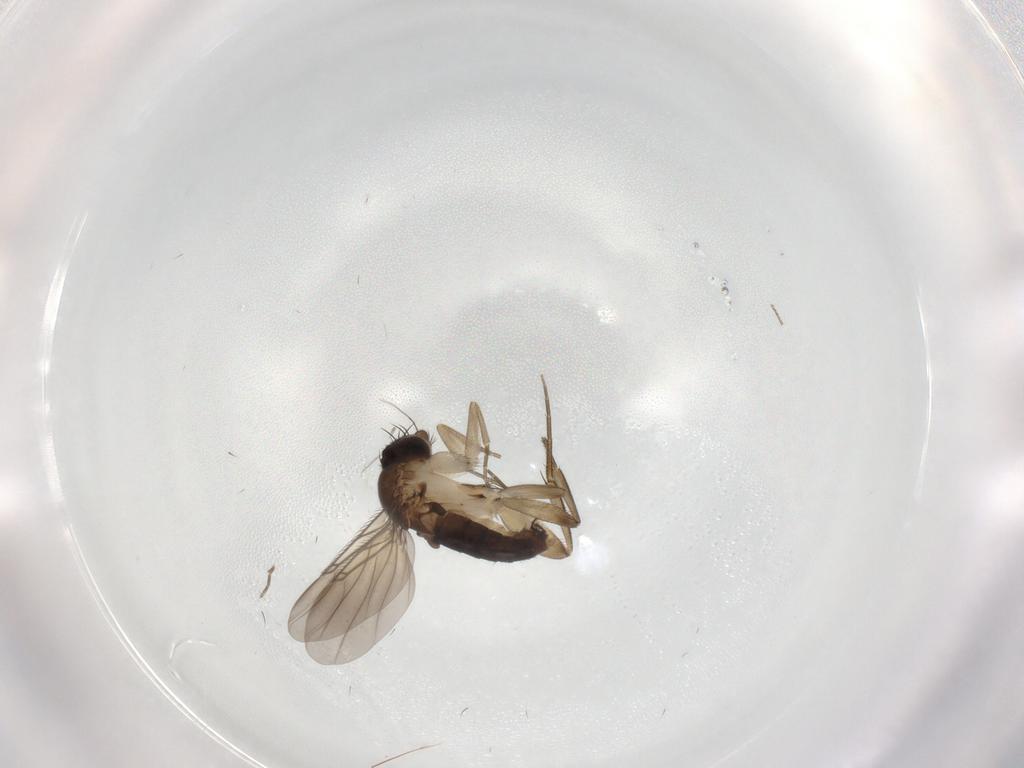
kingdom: Animalia
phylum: Arthropoda
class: Insecta
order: Diptera
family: Phoridae
